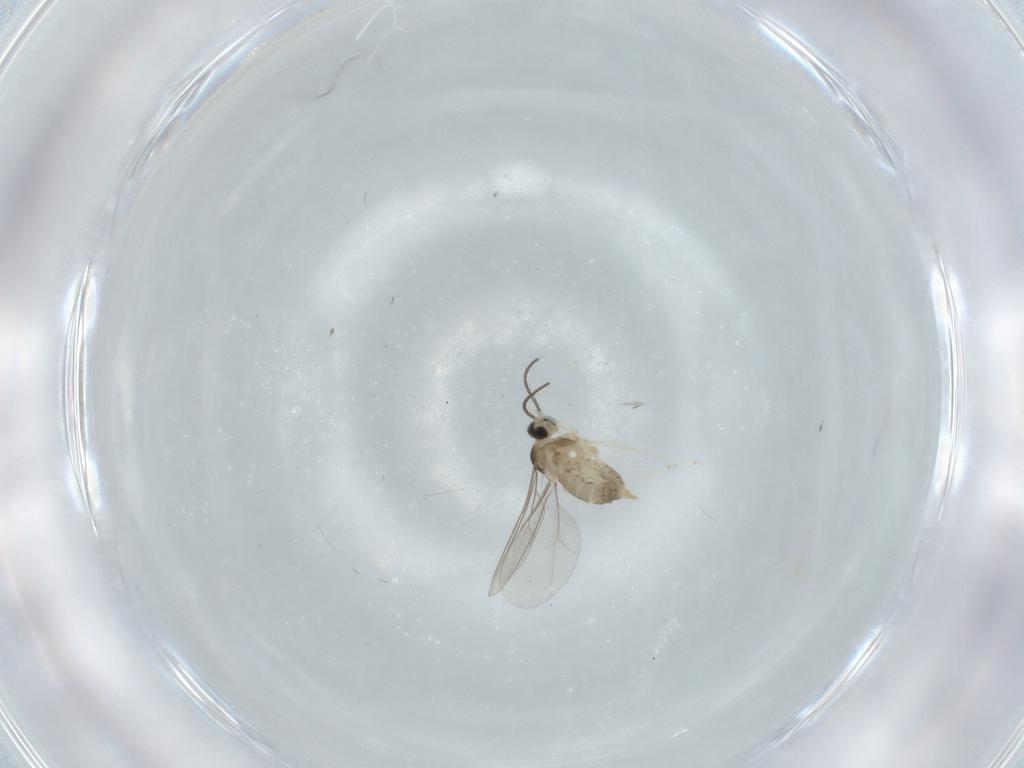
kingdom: Animalia
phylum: Arthropoda
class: Insecta
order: Diptera
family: Cecidomyiidae
